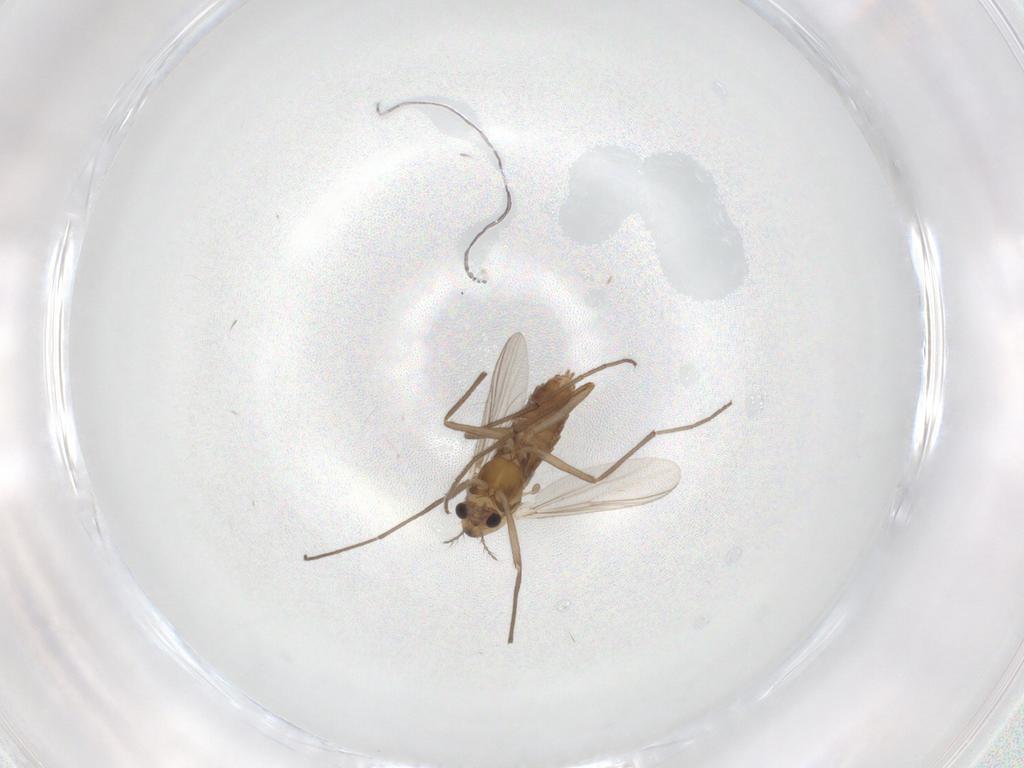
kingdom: Animalia
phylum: Arthropoda
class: Insecta
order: Diptera
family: Chironomidae
